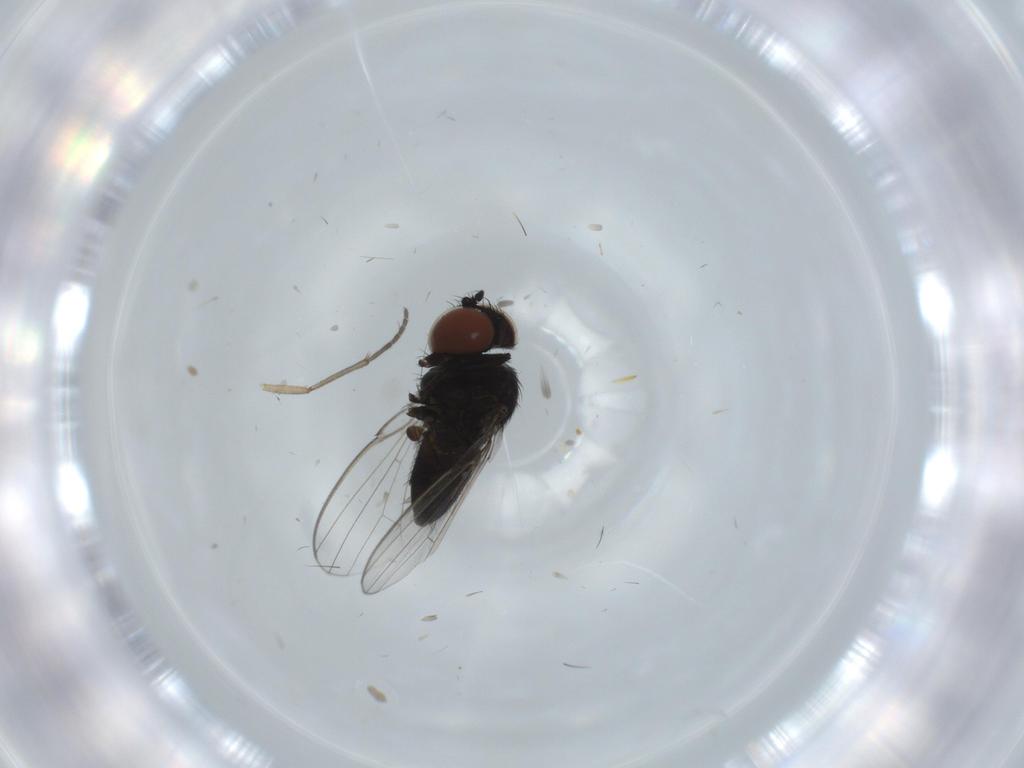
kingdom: Animalia
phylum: Arthropoda
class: Insecta
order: Diptera
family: Milichiidae
